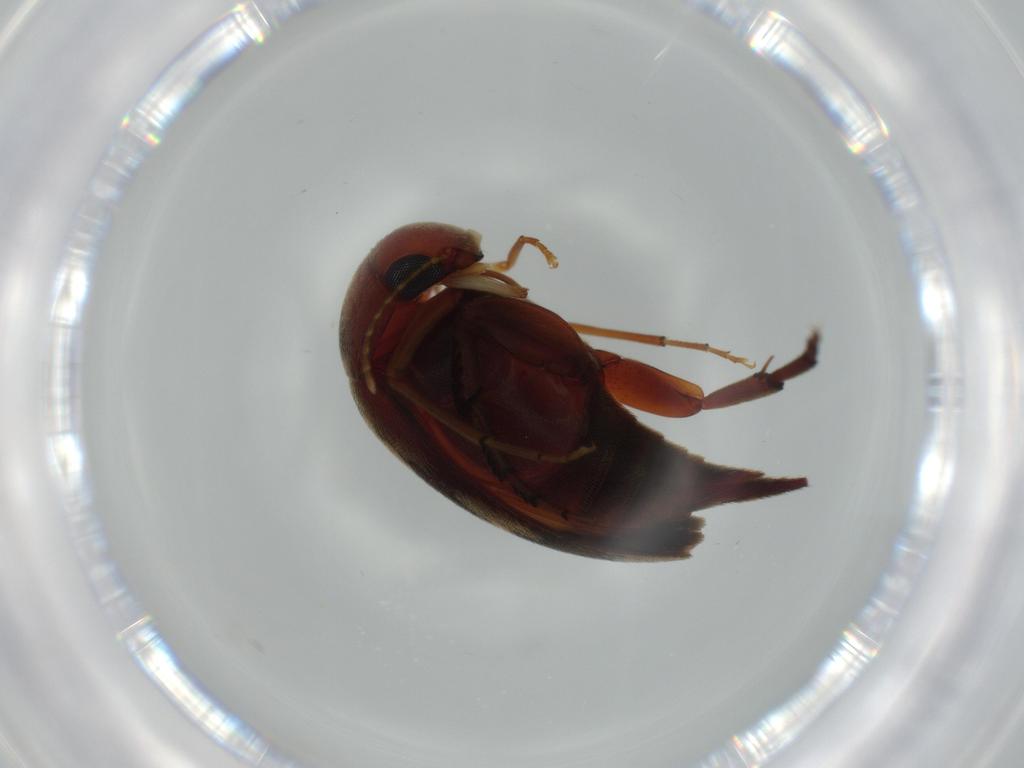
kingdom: Animalia
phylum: Arthropoda
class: Insecta
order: Coleoptera
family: Mordellidae
